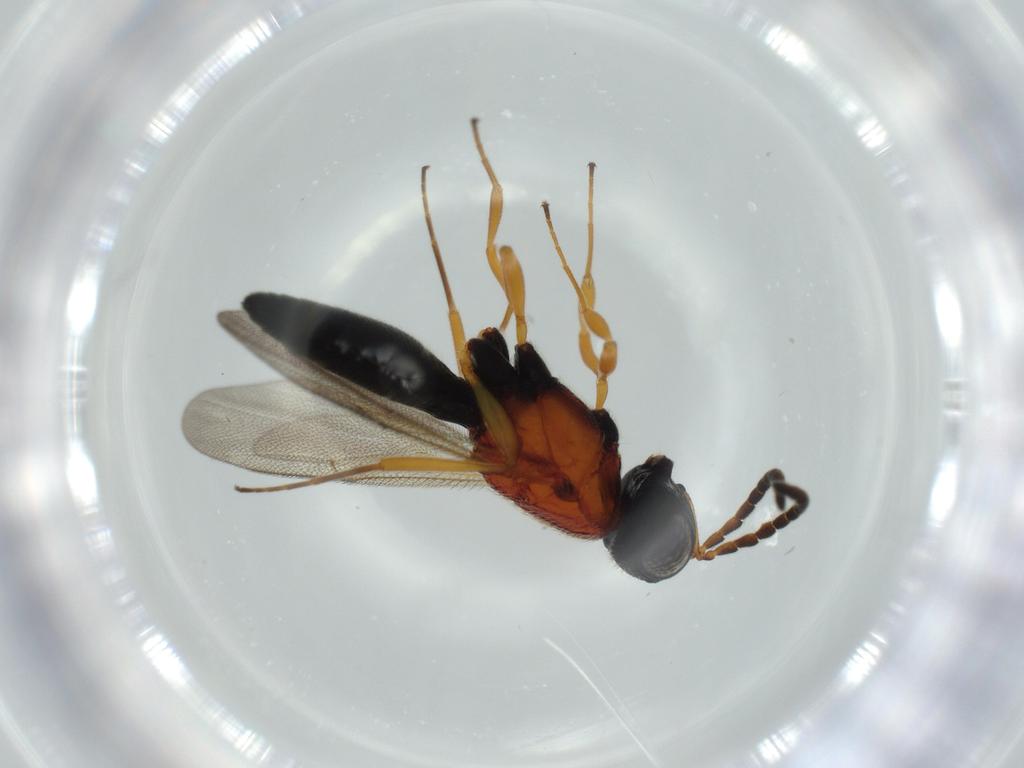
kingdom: Animalia
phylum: Arthropoda
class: Insecta
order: Hymenoptera
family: Scelionidae
